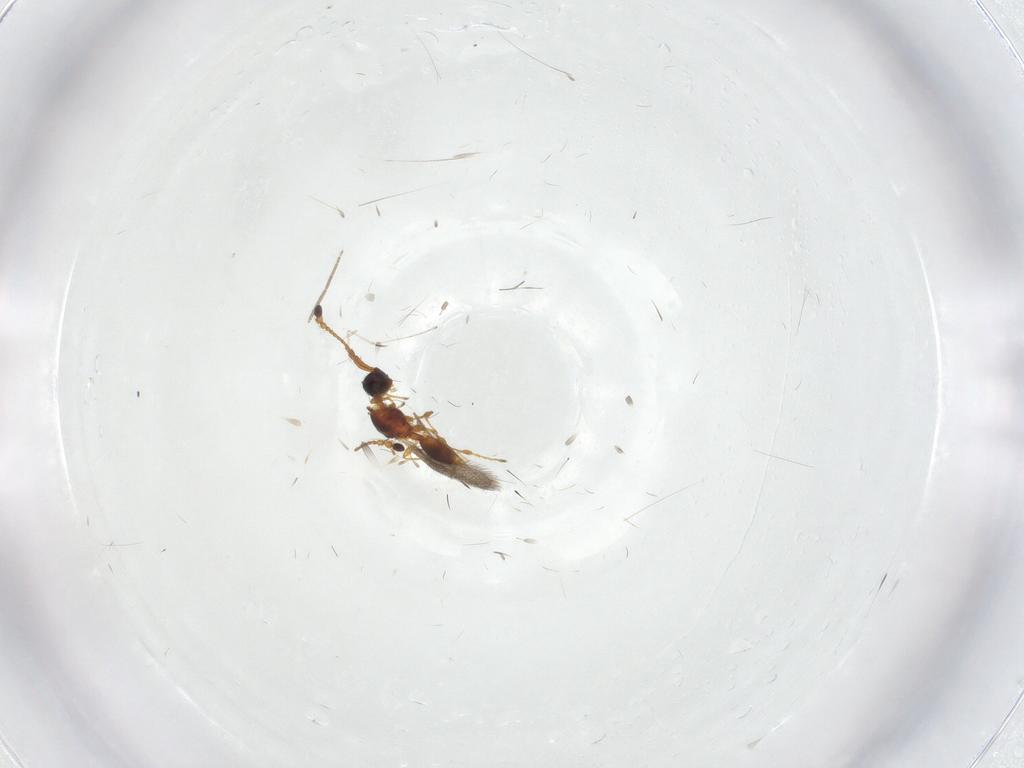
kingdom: Animalia
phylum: Arthropoda
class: Insecta
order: Hymenoptera
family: Diapriidae
